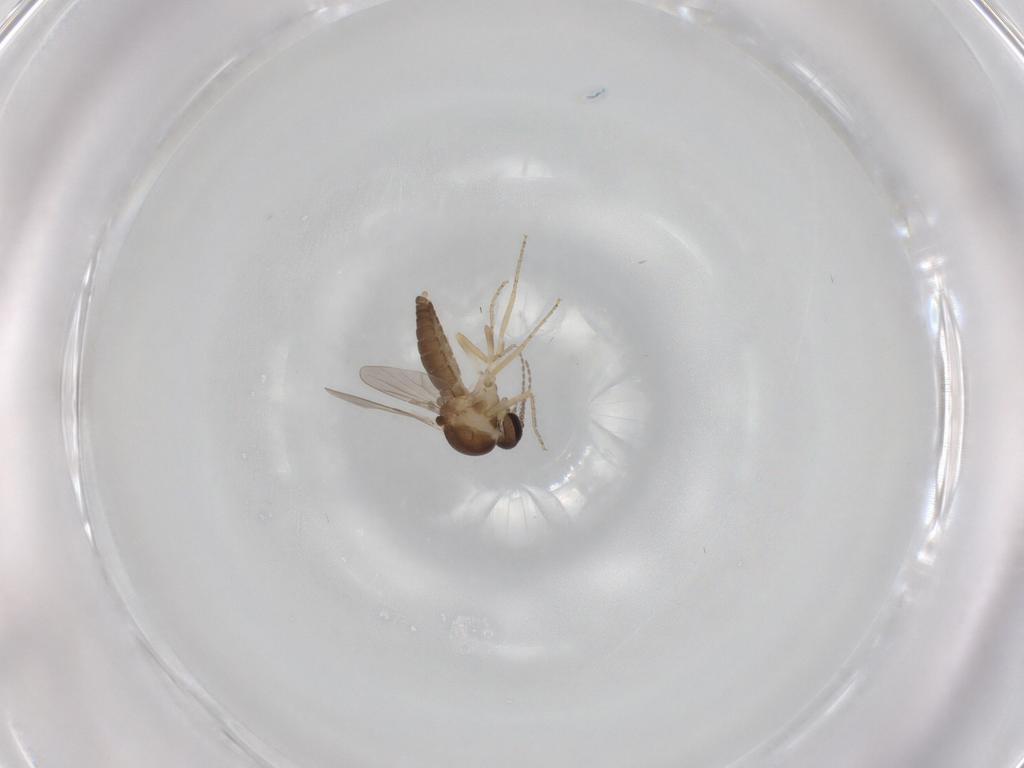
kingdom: Animalia
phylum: Arthropoda
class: Insecta
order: Diptera
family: Ceratopogonidae
